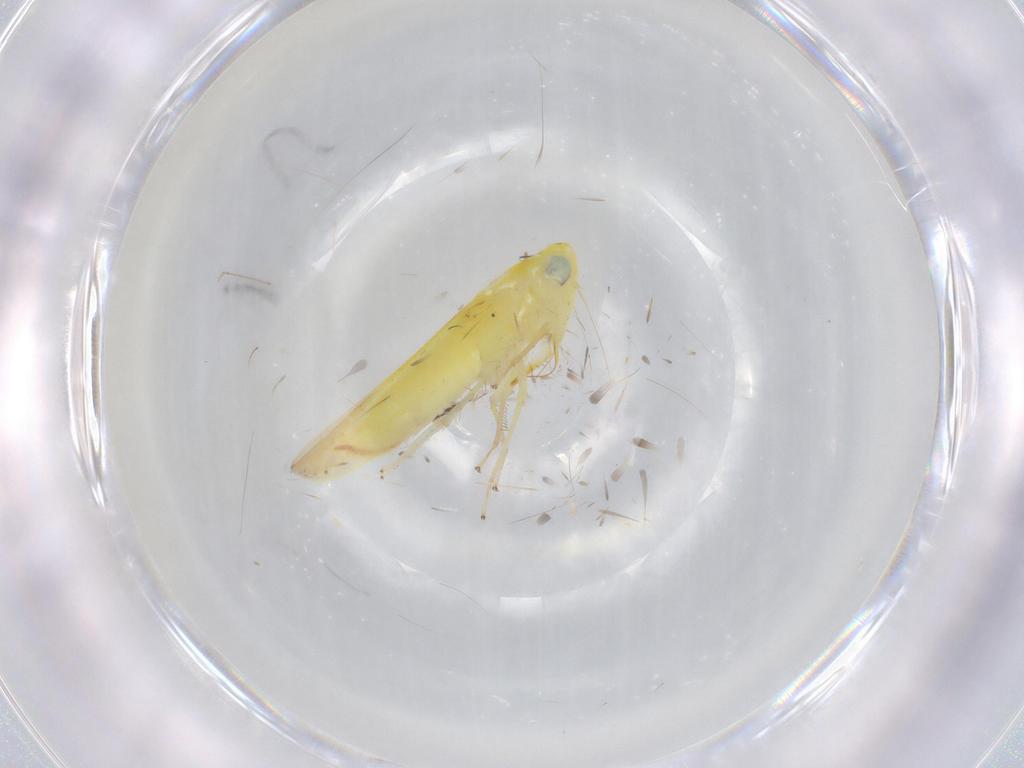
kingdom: Animalia
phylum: Arthropoda
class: Insecta
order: Hemiptera
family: Cicadellidae
